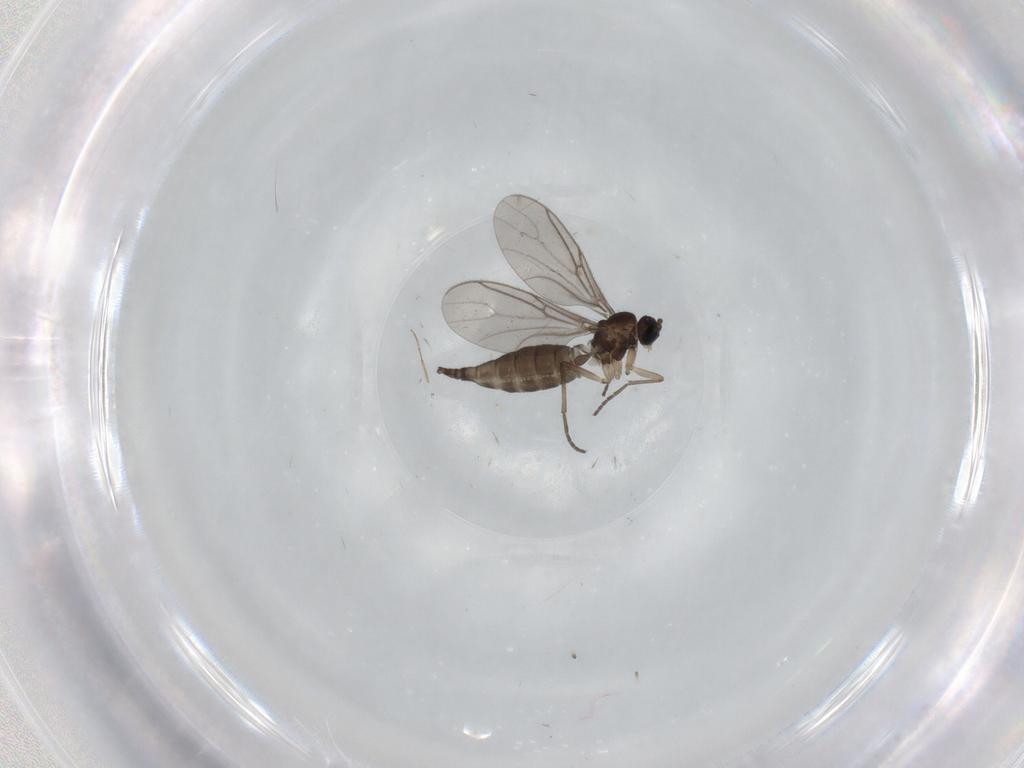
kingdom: Animalia
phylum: Arthropoda
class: Insecta
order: Diptera
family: Sciaridae
